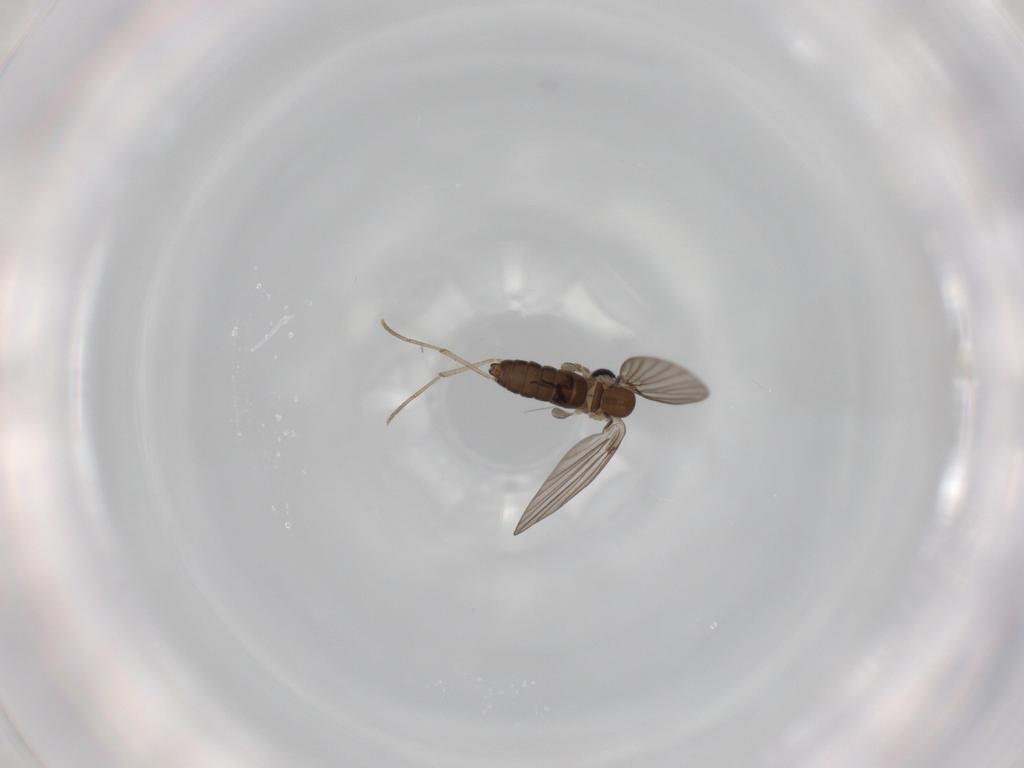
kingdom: Animalia
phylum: Arthropoda
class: Insecta
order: Diptera
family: Psychodidae
